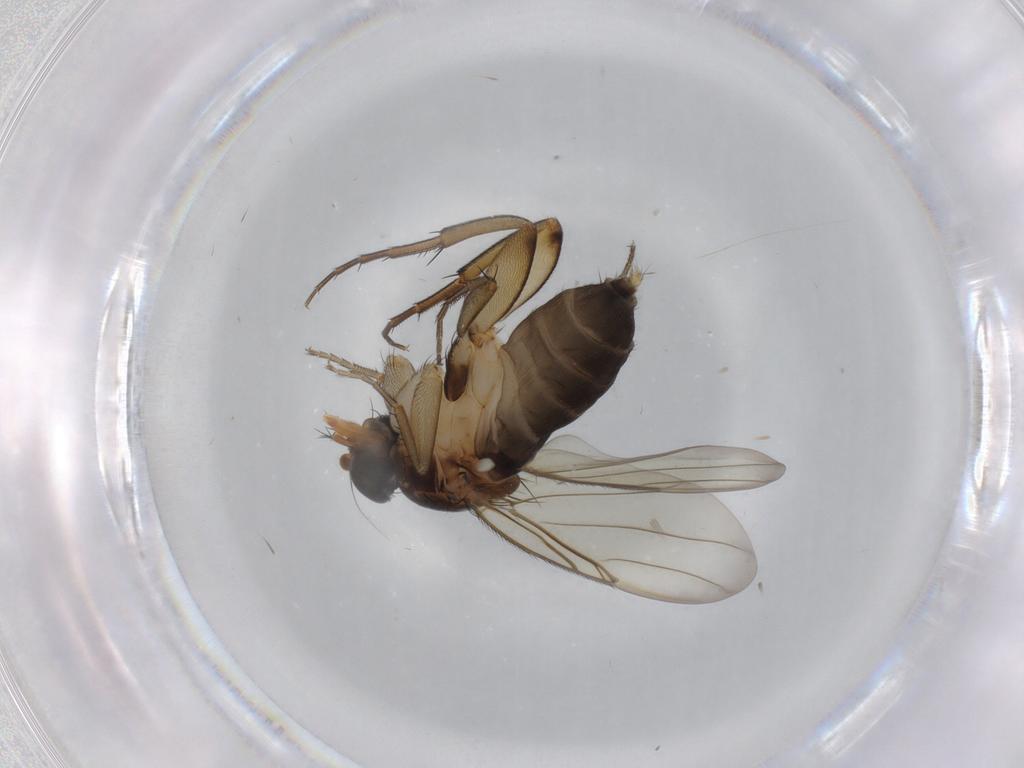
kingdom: Animalia
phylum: Arthropoda
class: Insecta
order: Diptera
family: Phoridae
